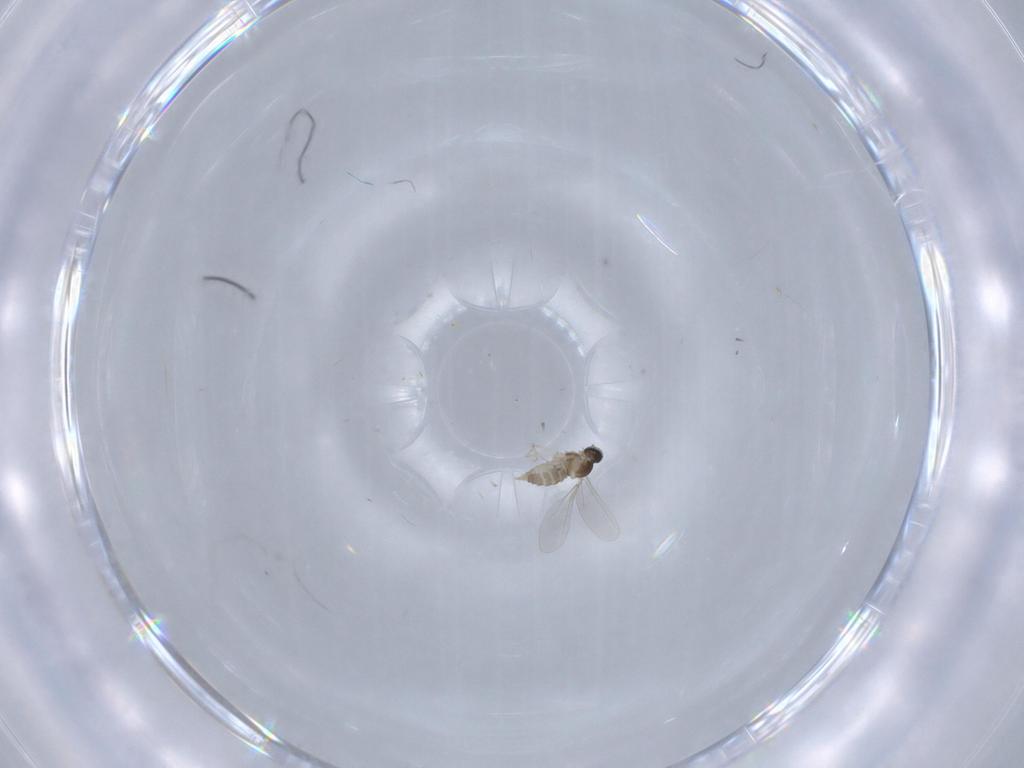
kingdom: Animalia
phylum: Arthropoda
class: Insecta
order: Diptera
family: Cecidomyiidae
